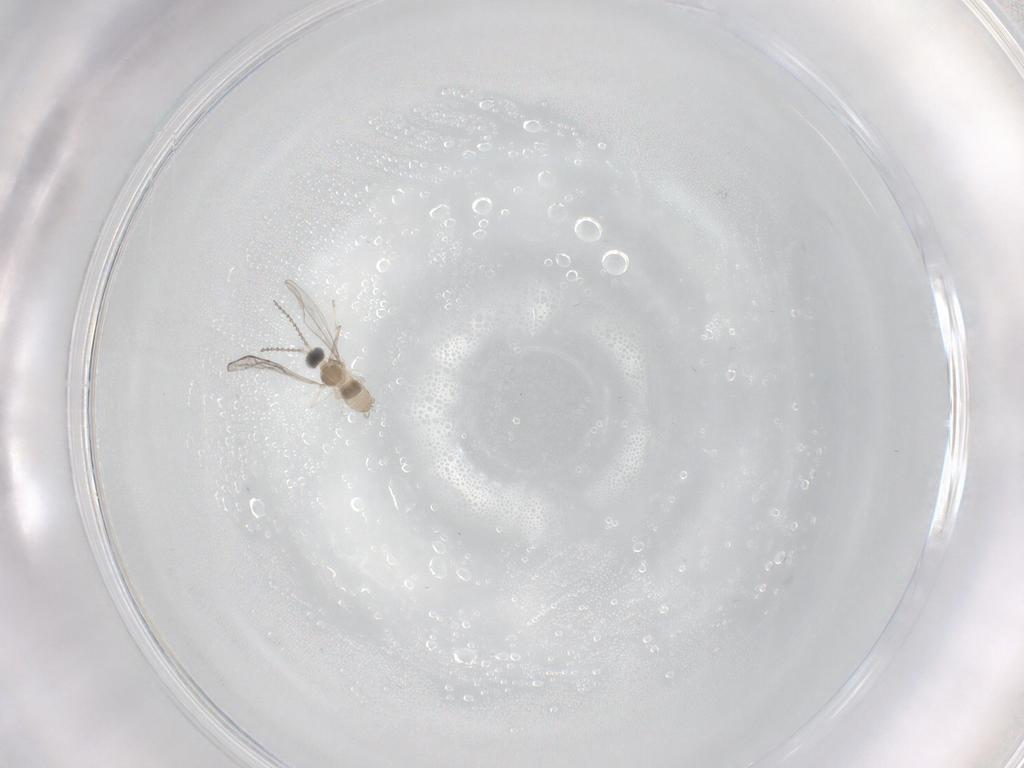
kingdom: Animalia
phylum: Arthropoda
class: Insecta
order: Diptera
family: Cecidomyiidae
